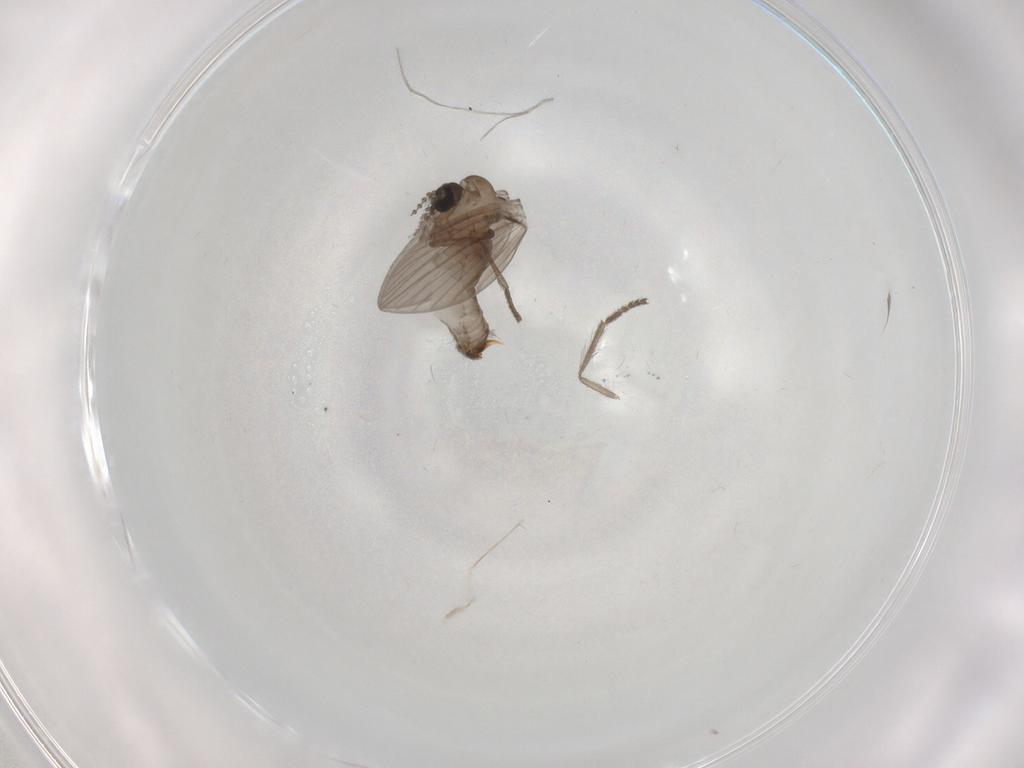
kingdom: Animalia
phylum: Arthropoda
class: Insecta
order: Diptera
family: Psychodidae
